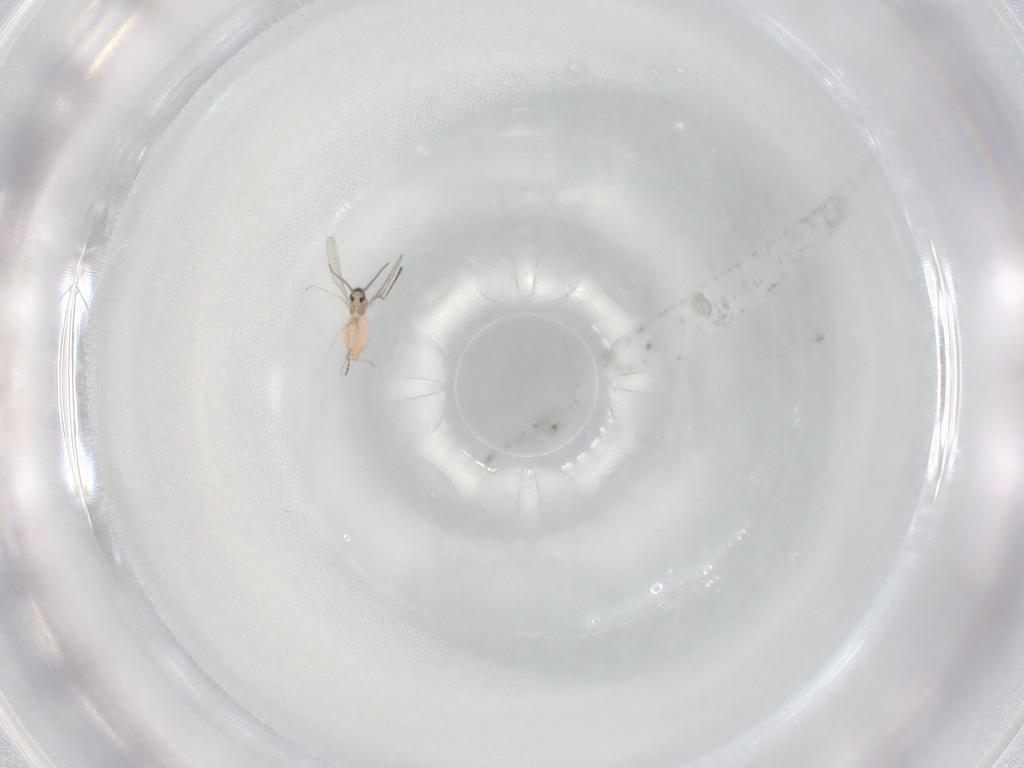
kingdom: Animalia
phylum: Arthropoda
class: Insecta
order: Diptera
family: Cecidomyiidae
